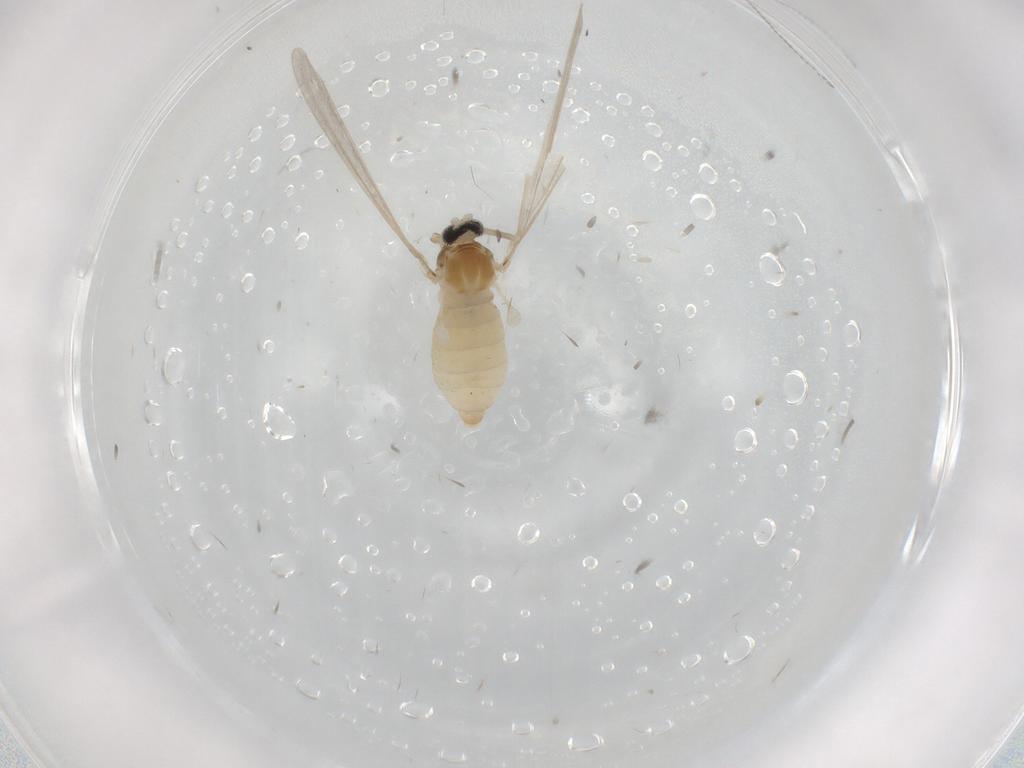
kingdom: Animalia
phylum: Arthropoda
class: Insecta
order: Diptera
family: Cecidomyiidae
